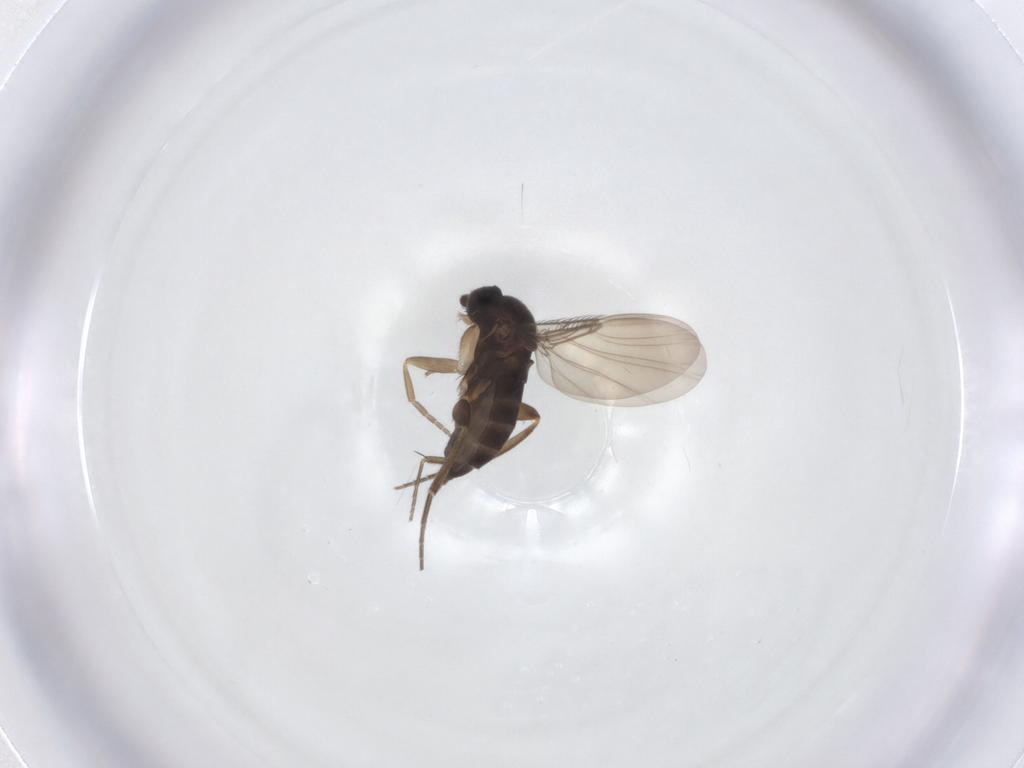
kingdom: Animalia
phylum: Arthropoda
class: Insecta
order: Diptera
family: Phoridae
